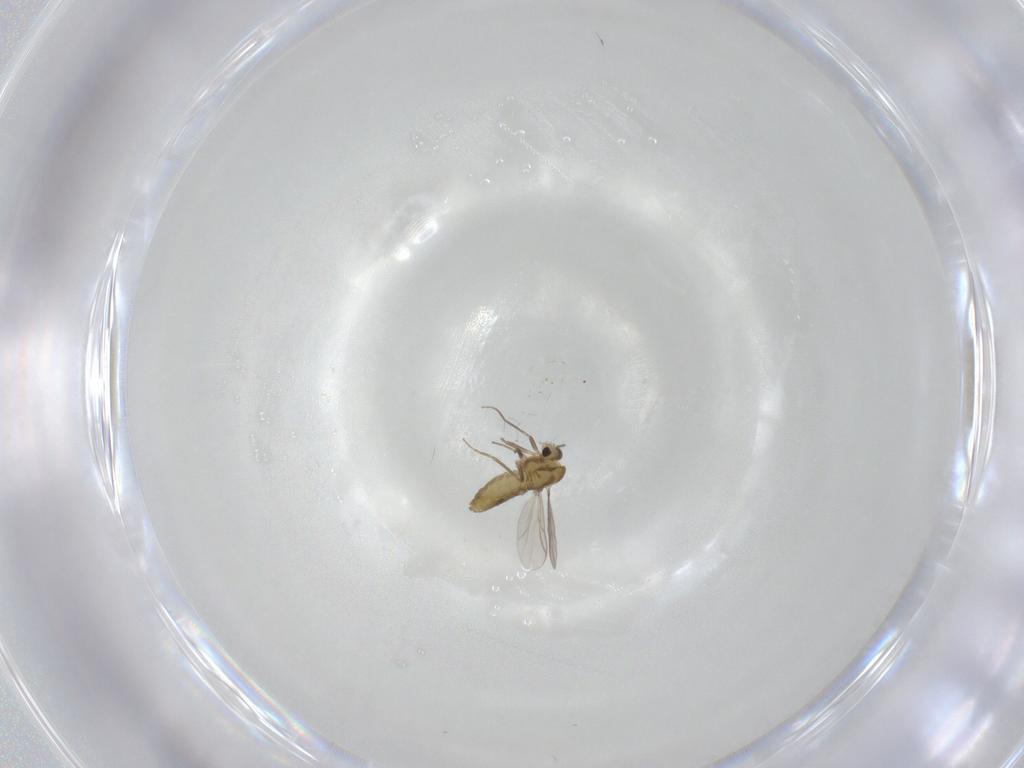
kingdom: Animalia
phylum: Arthropoda
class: Insecta
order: Diptera
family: Chironomidae
